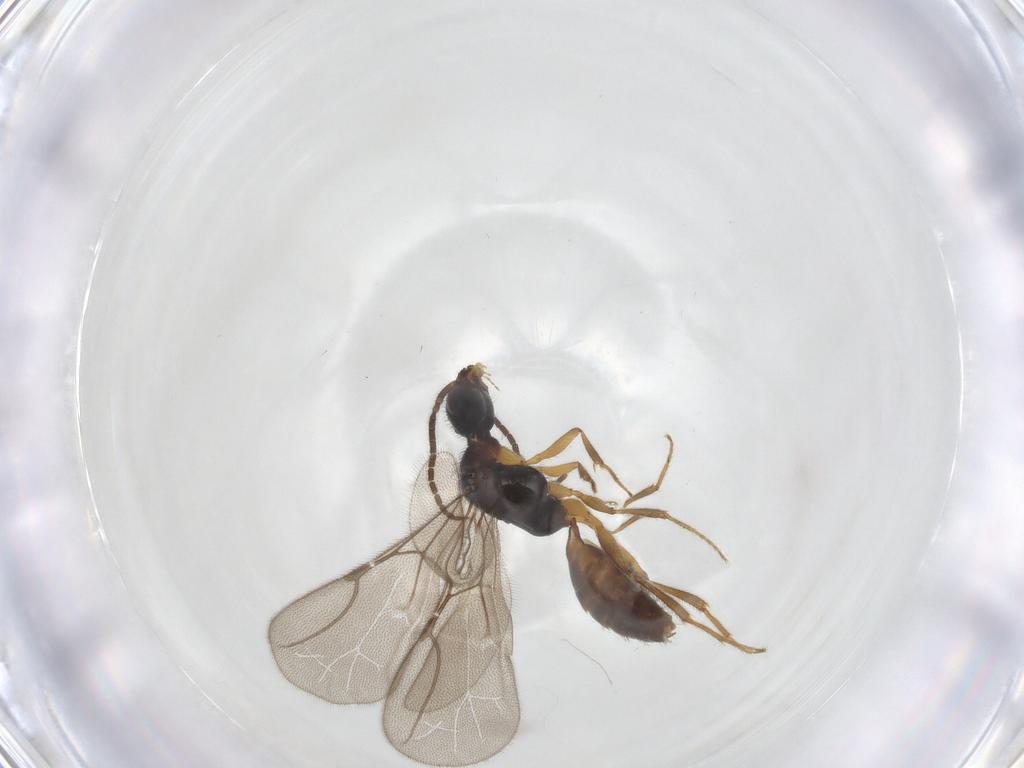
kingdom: Animalia
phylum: Arthropoda
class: Insecta
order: Hymenoptera
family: Bethylidae
